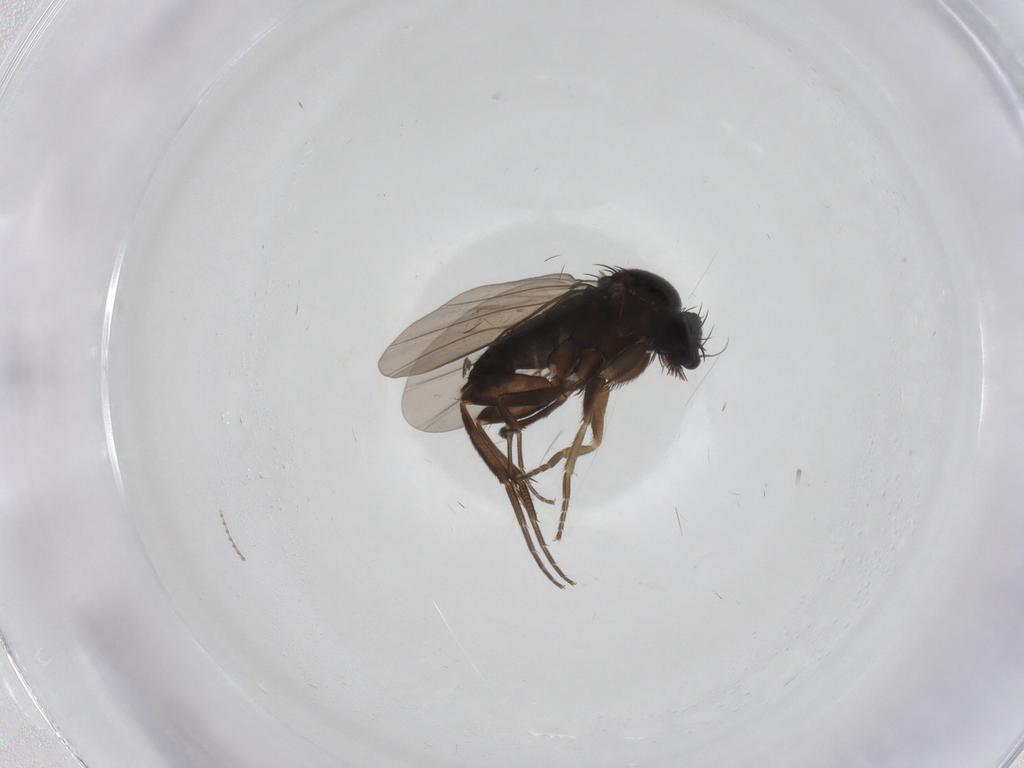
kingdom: Animalia
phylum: Arthropoda
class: Insecta
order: Diptera
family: Phoridae
